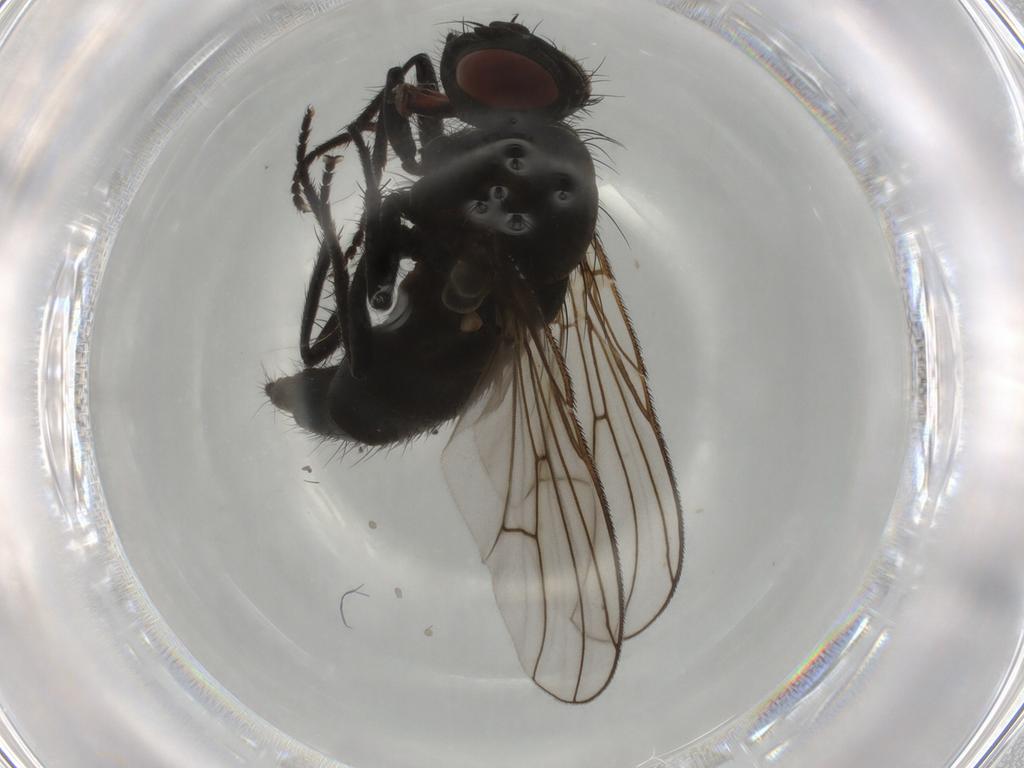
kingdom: Animalia
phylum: Arthropoda
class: Insecta
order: Diptera
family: Muscidae
